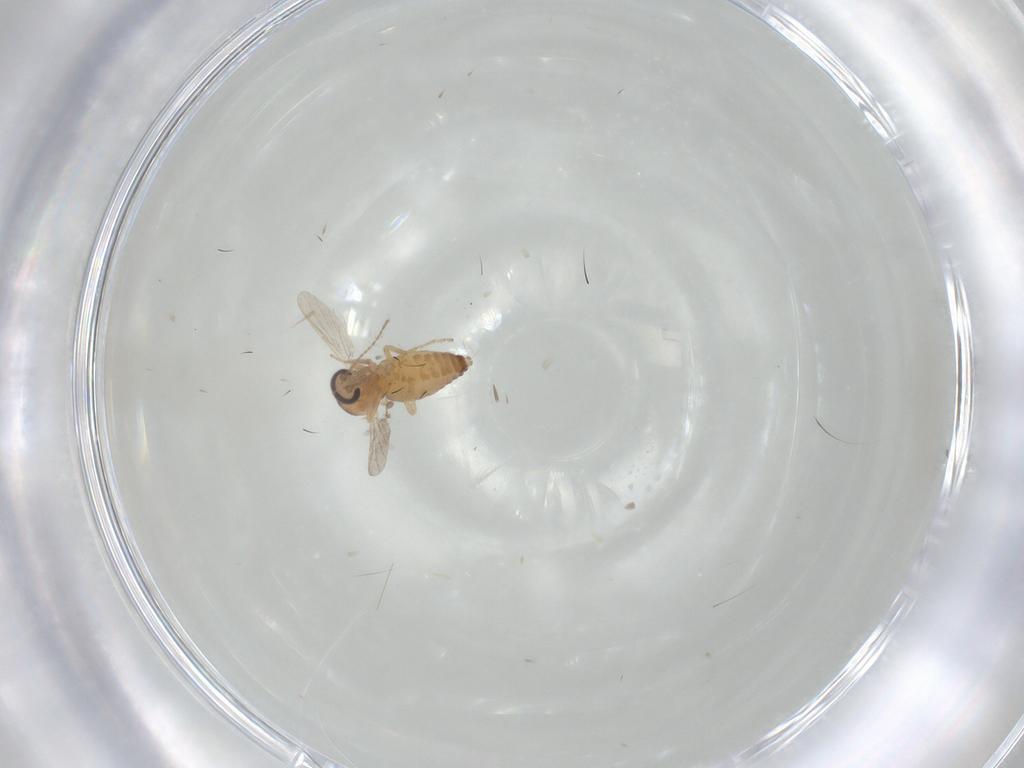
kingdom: Animalia
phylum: Arthropoda
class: Insecta
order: Diptera
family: Ceratopogonidae
